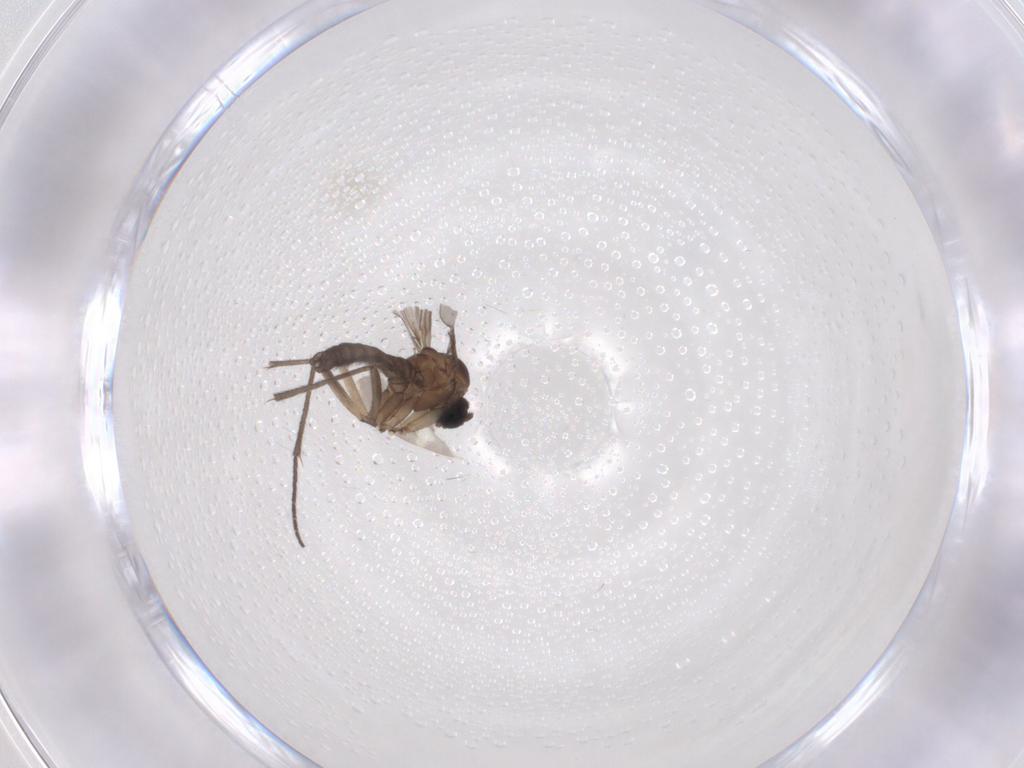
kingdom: Animalia
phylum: Arthropoda
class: Insecta
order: Diptera
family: Sciaridae
